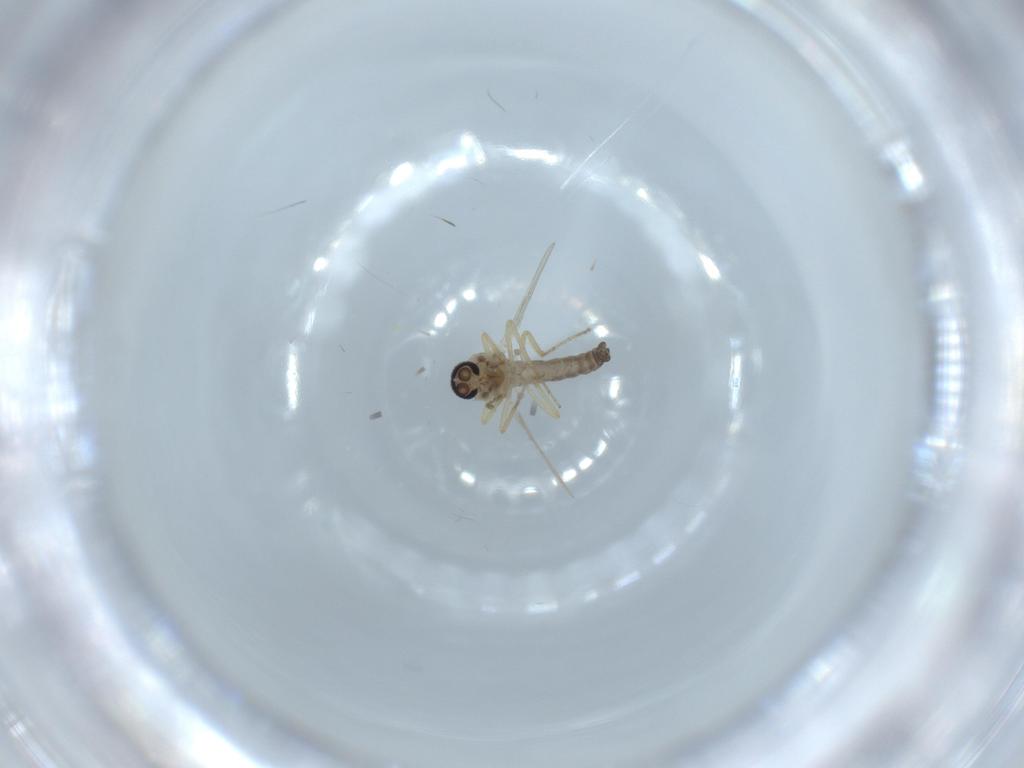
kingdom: Animalia
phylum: Arthropoda
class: Insecta
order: Diptera
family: Ceratopogonidae
